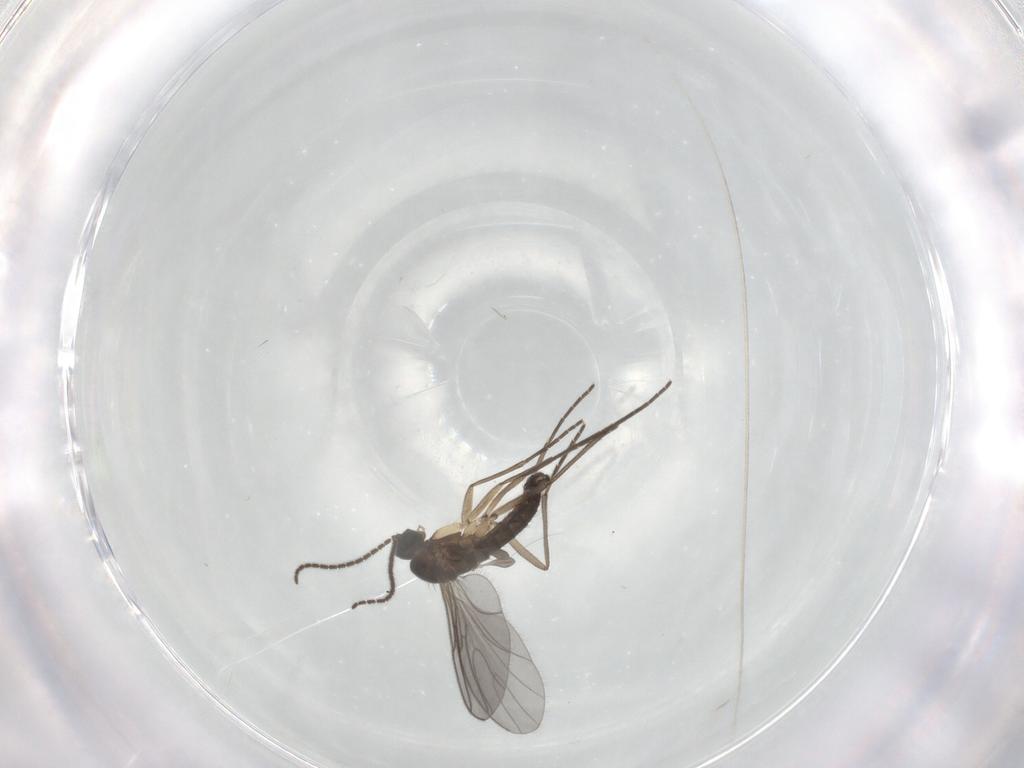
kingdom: Animalia
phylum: Arthropoda
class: Insecta
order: Diptera
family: Sciaridae
